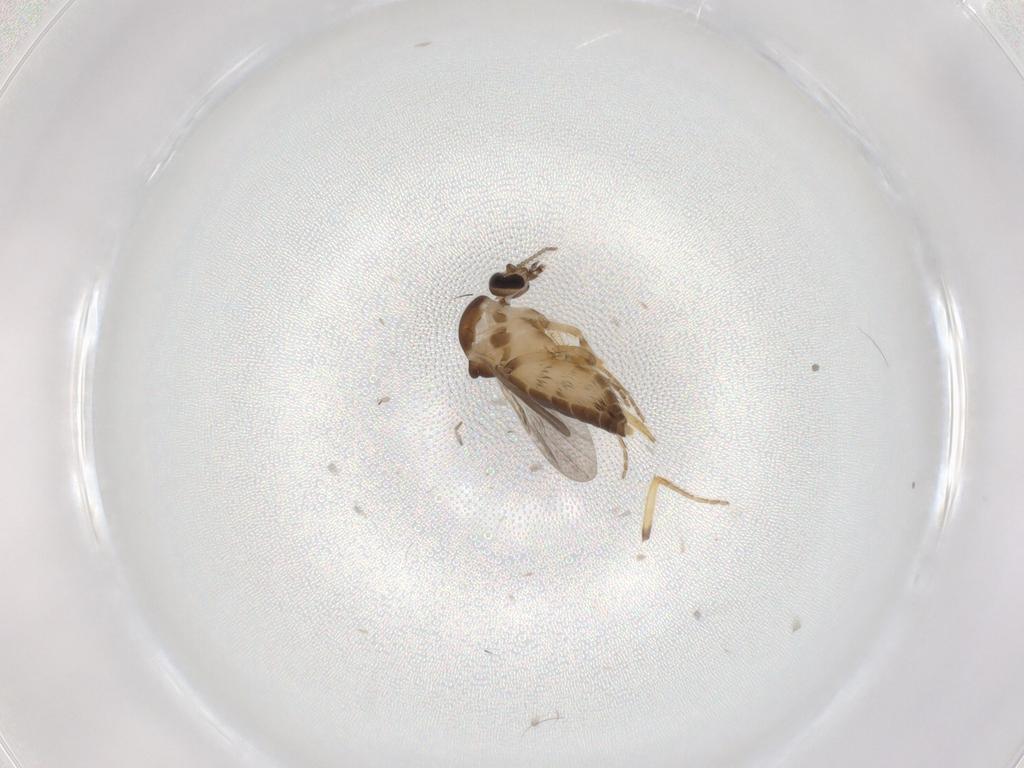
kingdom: Animalia
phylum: Arthropoda
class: Insecta
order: Diptera
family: Ceratopogonidae
